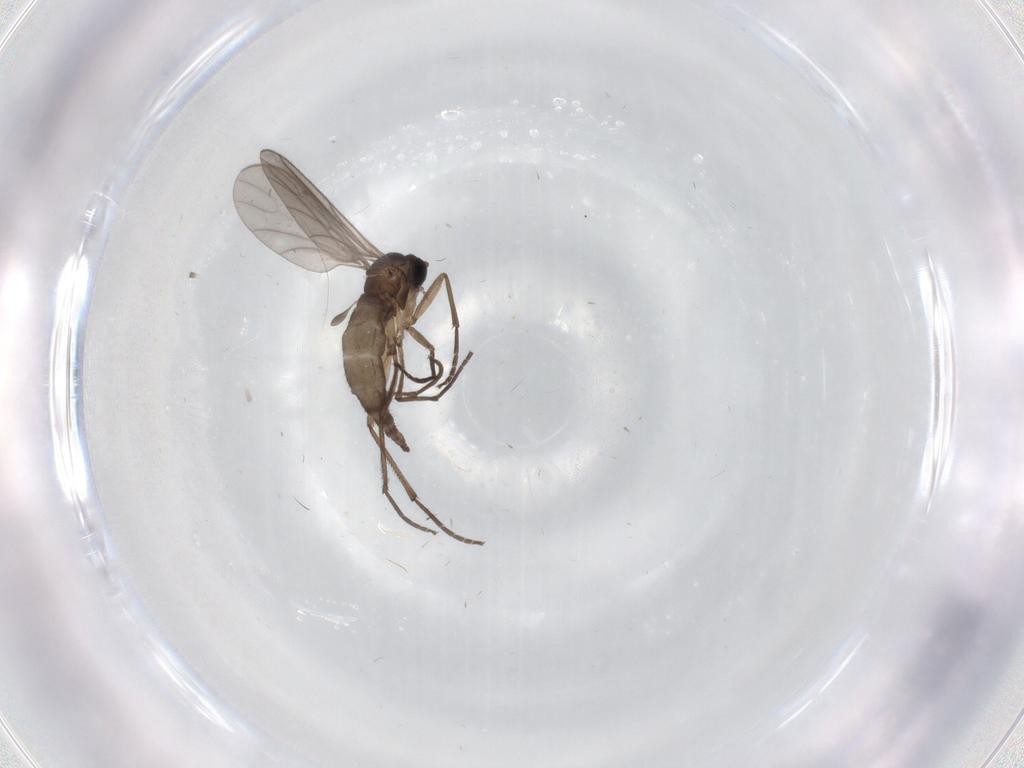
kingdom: Animalia
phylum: Arthropoda
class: Insecta
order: Diptera
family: Sciaridae
